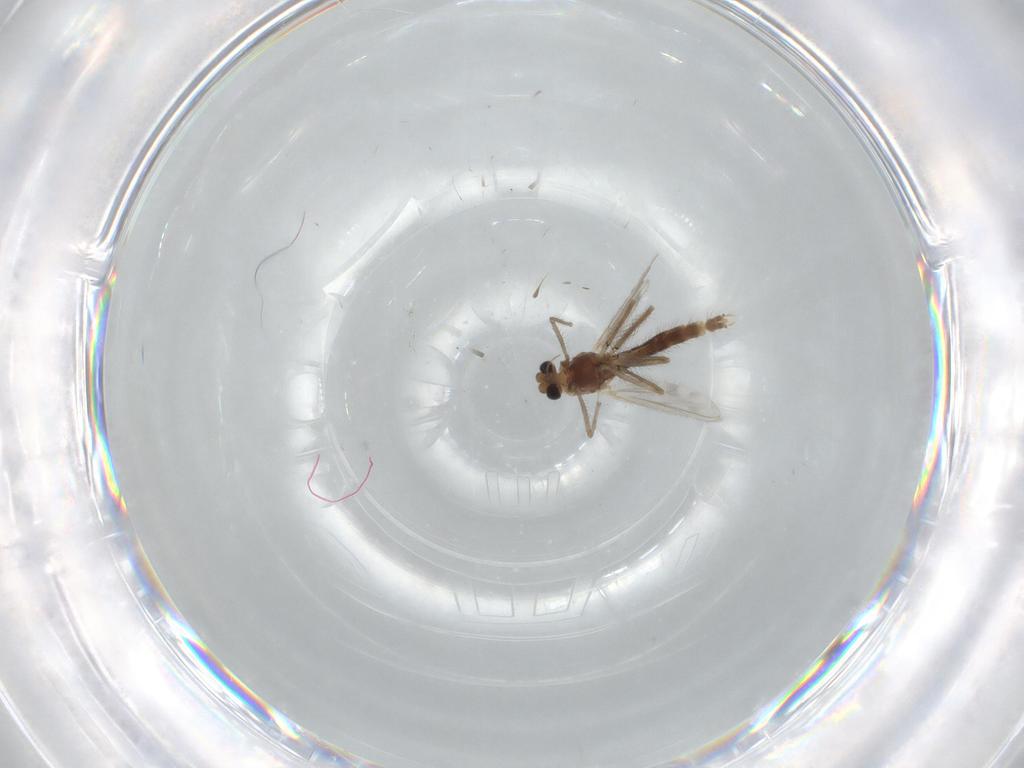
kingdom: Animalia
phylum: Arthropoda
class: Insecta
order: Diptera
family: Chironomidae
